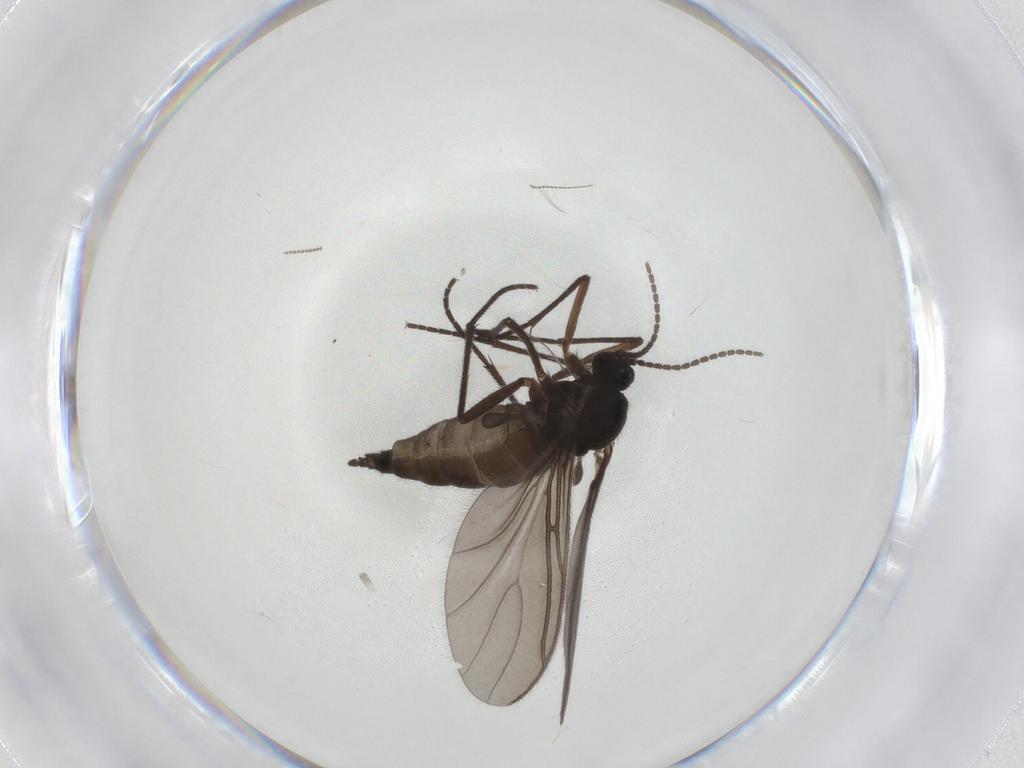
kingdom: Animalia
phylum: Arthropoda
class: Insecta
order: Diptera
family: Sciaridae
